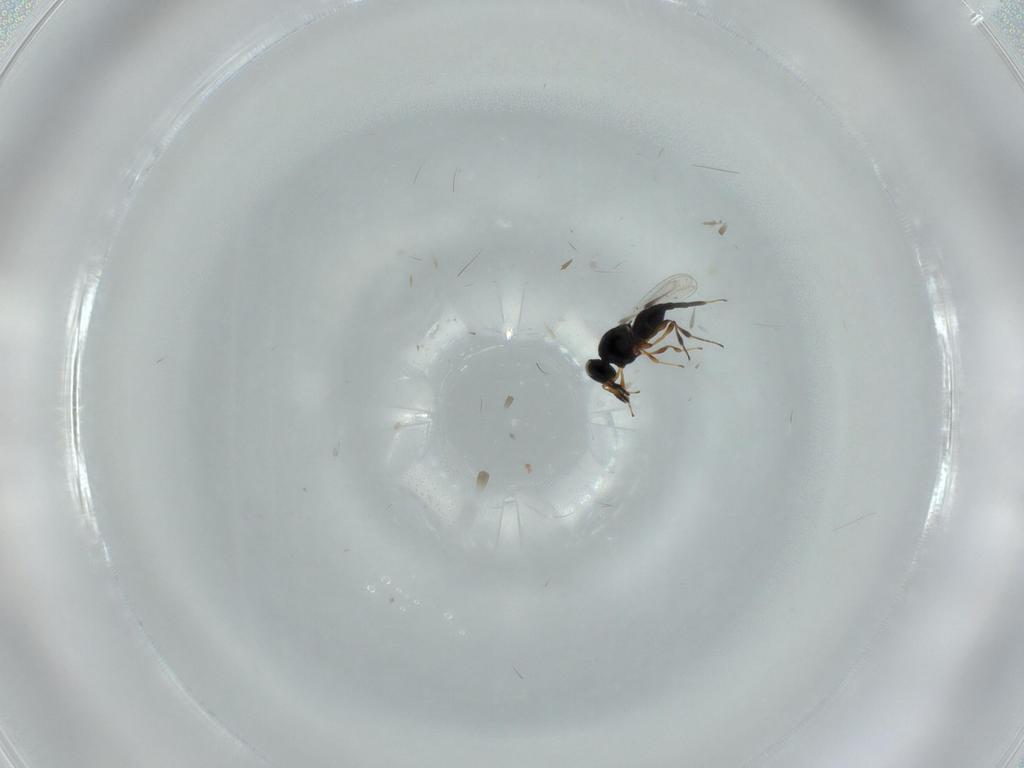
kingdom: Animalia
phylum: Arthropoda
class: Insecta
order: Hymenoptera
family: Platygastridae
